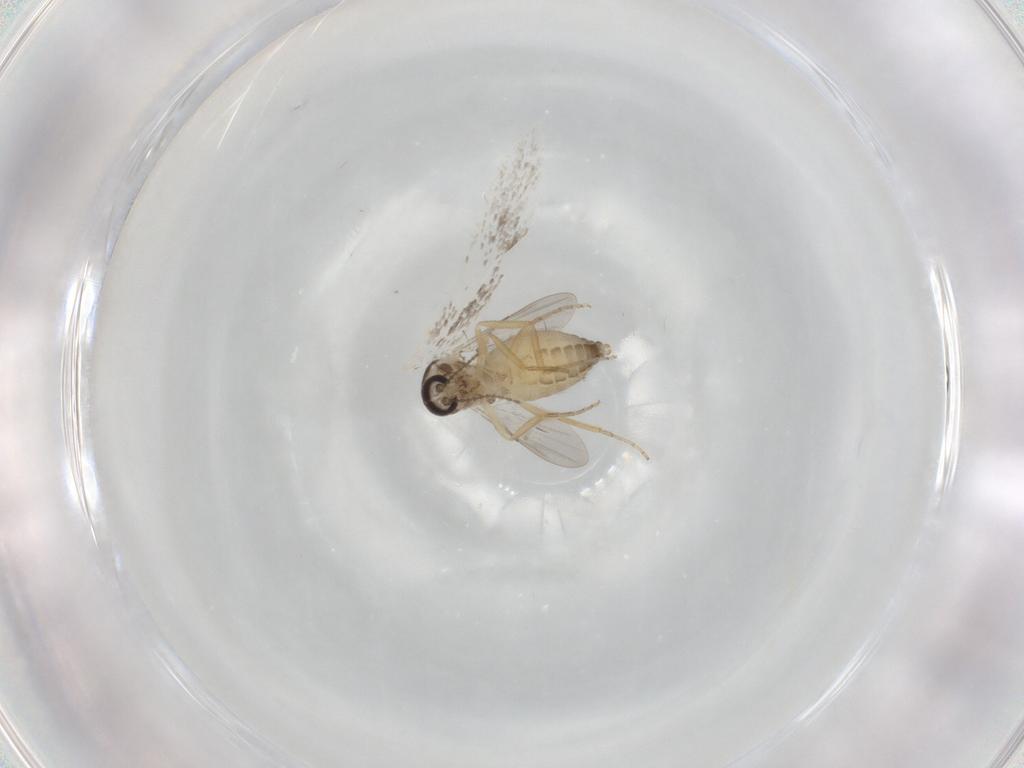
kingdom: Animalia
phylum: Arthropoda
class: Insecta
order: Diptera
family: Ceratopogonidae
